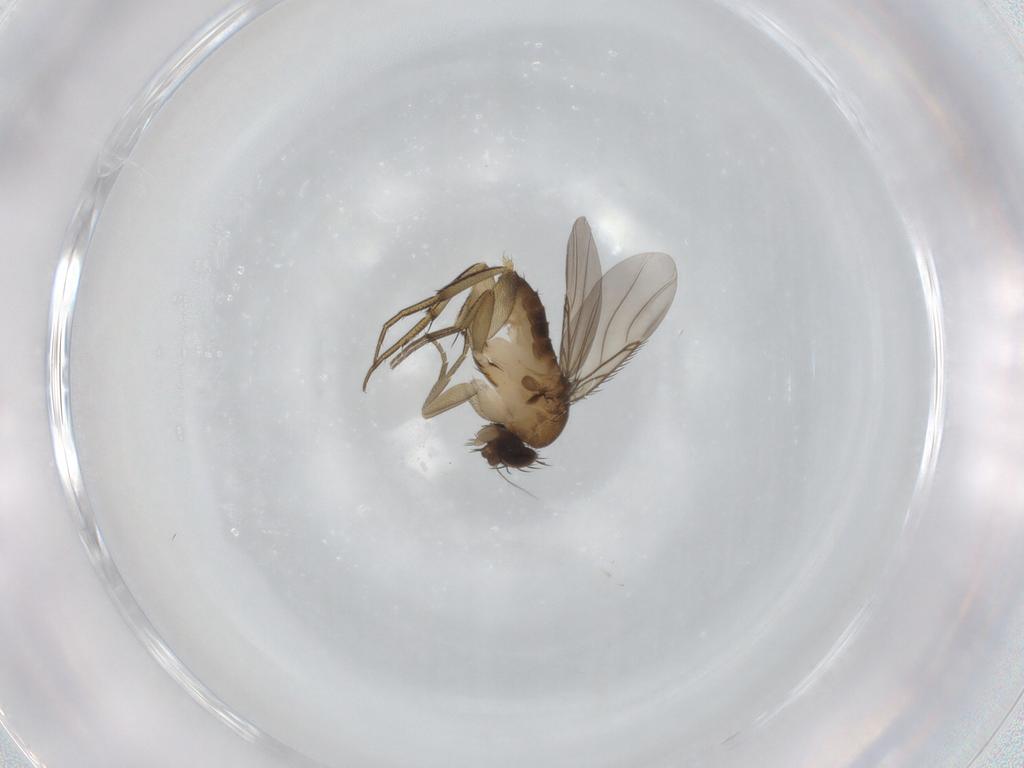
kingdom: Animalia
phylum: Arthropoda
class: Insecta
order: Diptera
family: Phoridae
